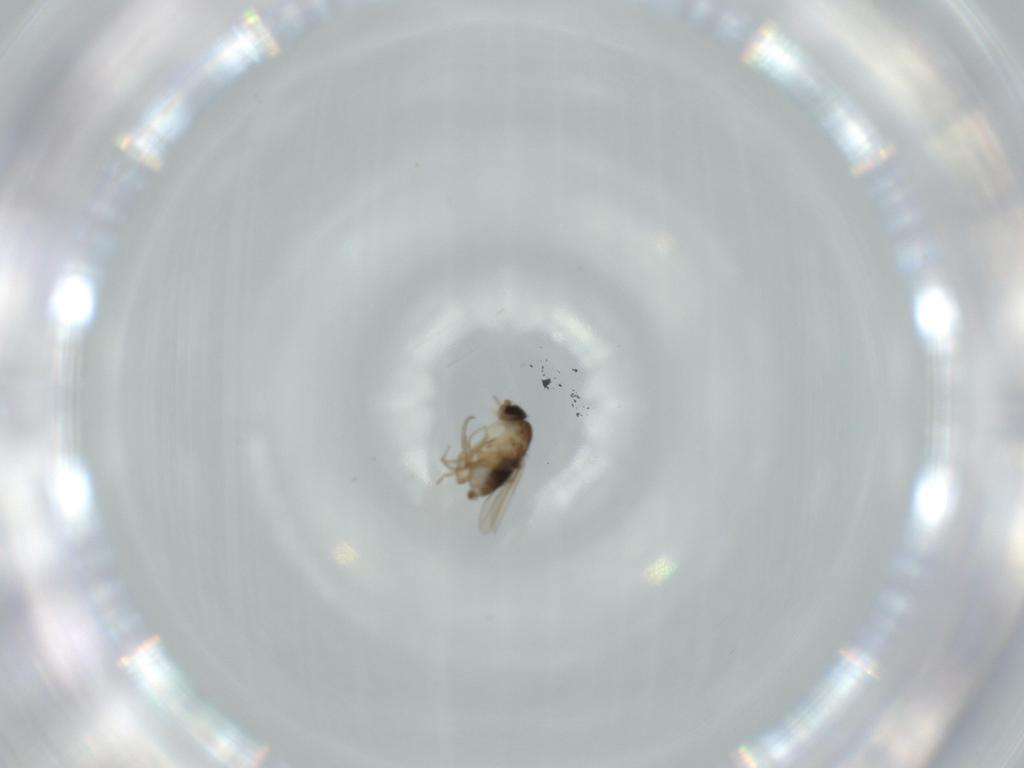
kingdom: Animalia
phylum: Arthropoda
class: Insecta
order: Diptera
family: Phoridae
